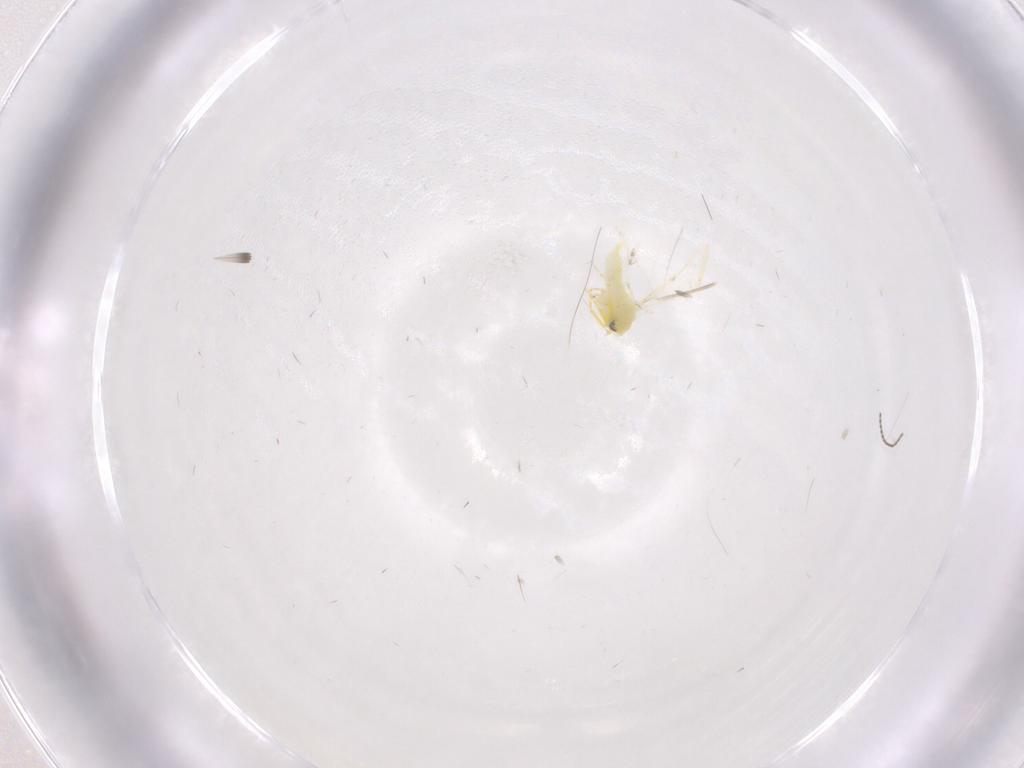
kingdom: Animalia
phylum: Arthropoda
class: Insecta
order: Hemiptera
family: Aleyrodidae
